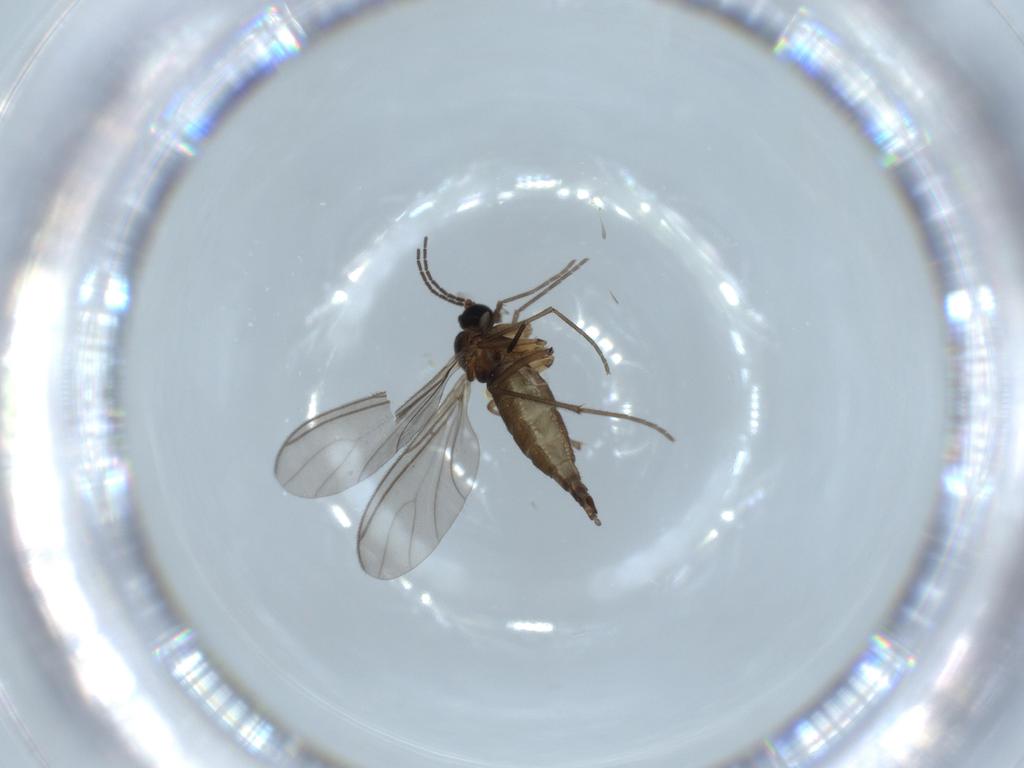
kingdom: Animalia
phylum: Arthropoda
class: Insecta
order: Diptera
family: Sciaridae
